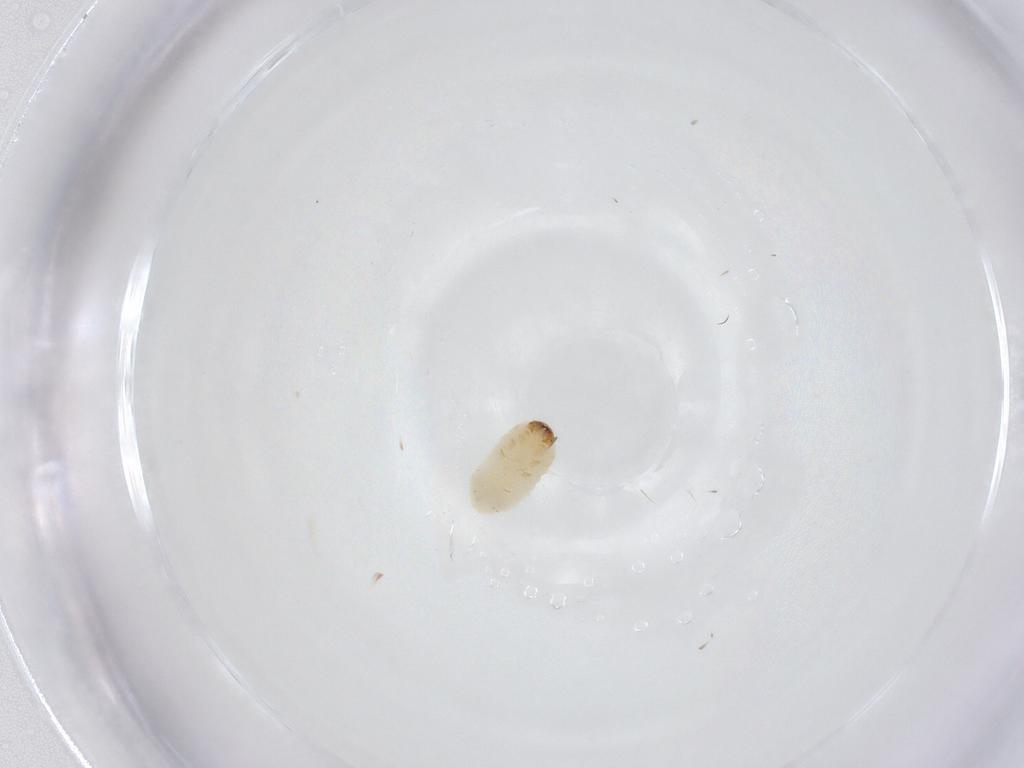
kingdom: Animalia
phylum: Arthropoda
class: Insecta
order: Coleoptera
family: Bostrichidae
